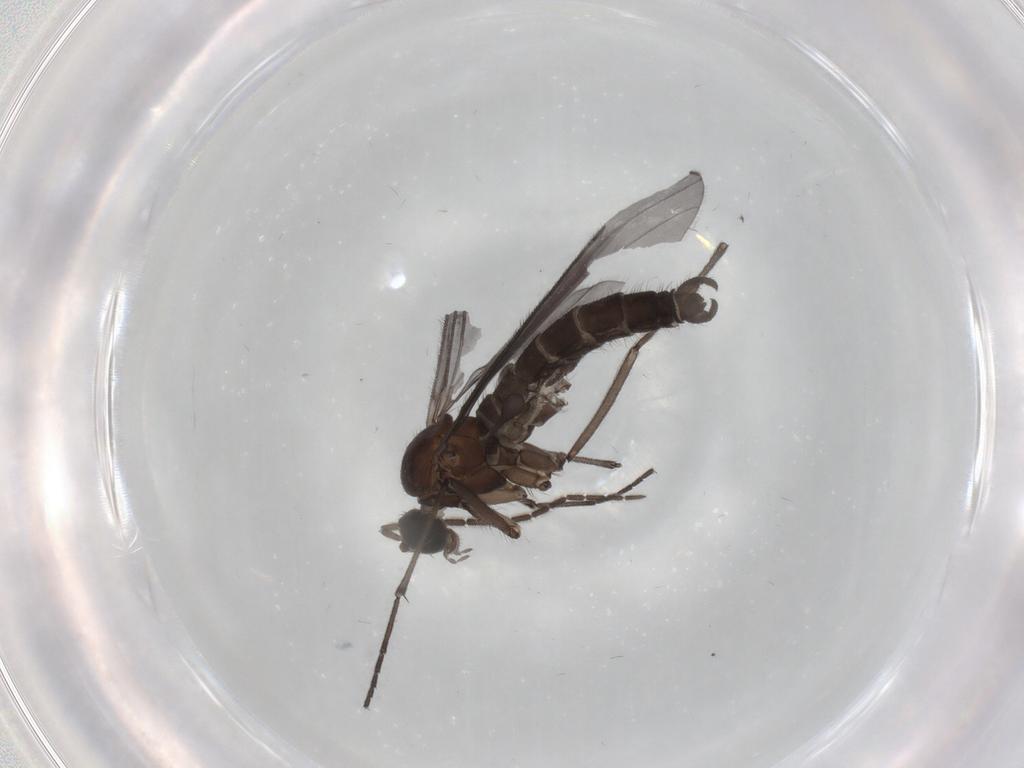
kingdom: Animalia
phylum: Arthropoda
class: Insecta
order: Diptera
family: Sciaridae
